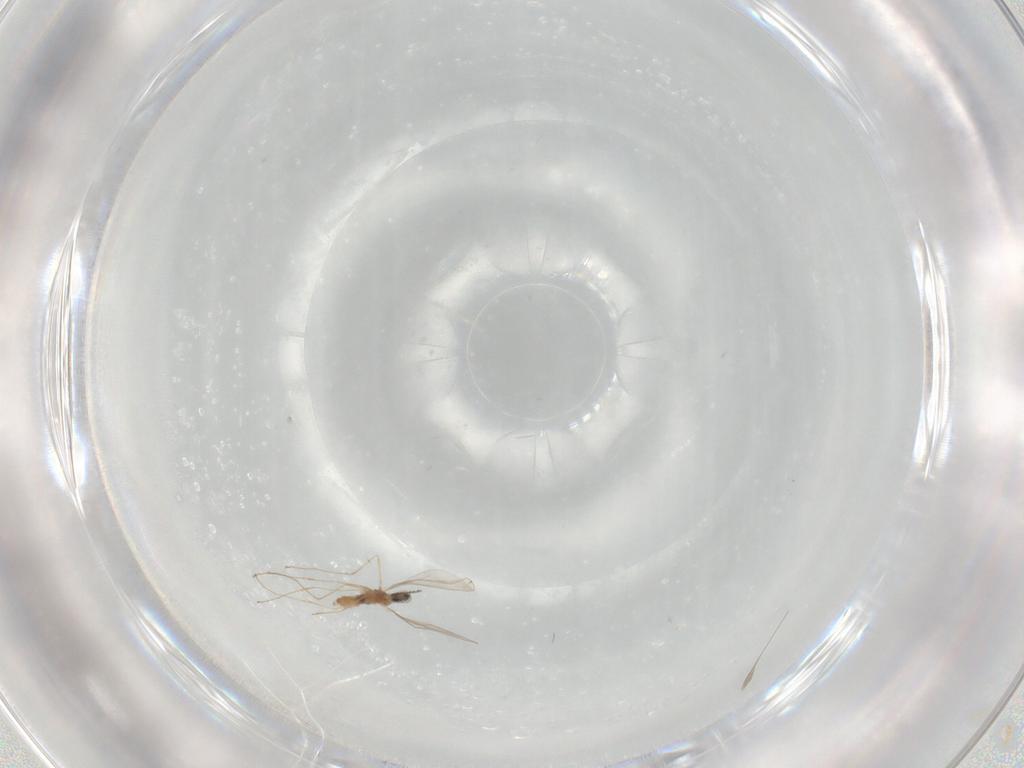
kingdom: Animalia
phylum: Arthropoda
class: Insecta
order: Diptera
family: Cecidomyiidae
